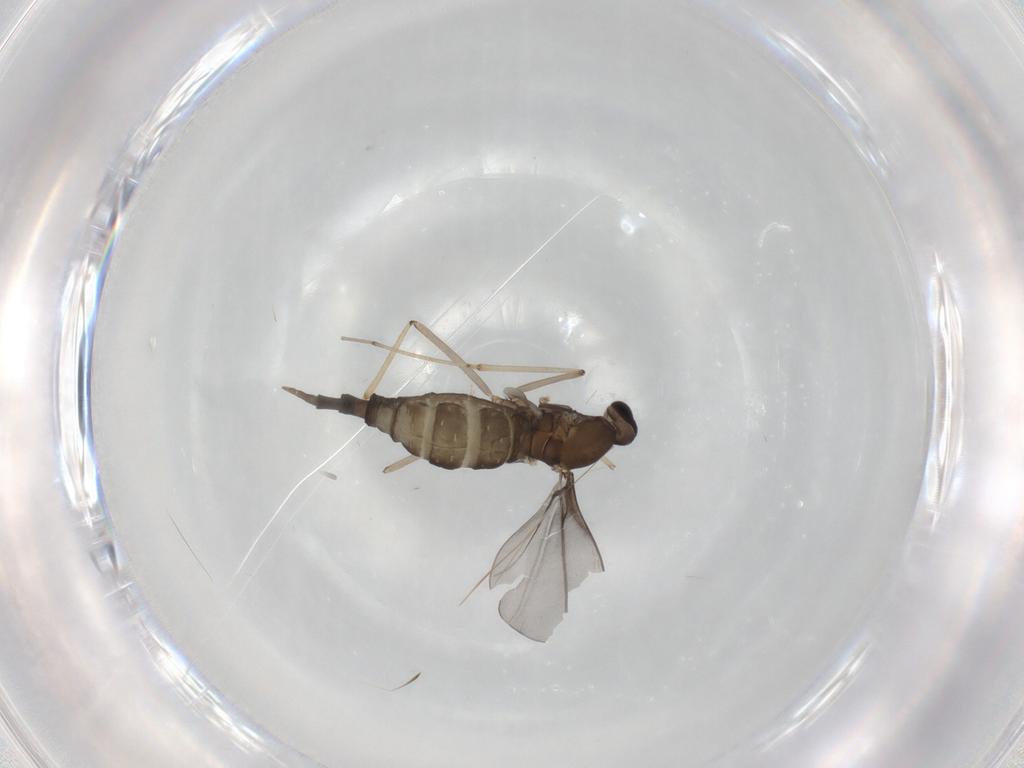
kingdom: Animalia
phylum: Arthropoda
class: Insecta
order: Diptera
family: Cecidomyiidae
